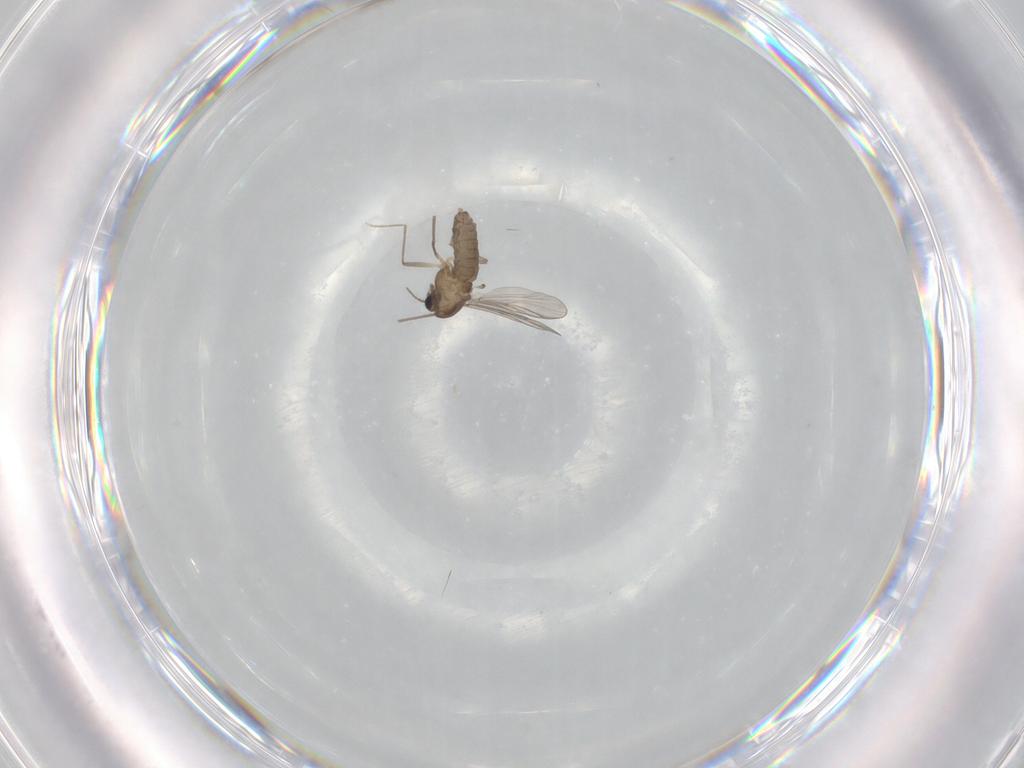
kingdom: Animalia
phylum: Arthropoda
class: Insecta
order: Diptera
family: Chironomidae
